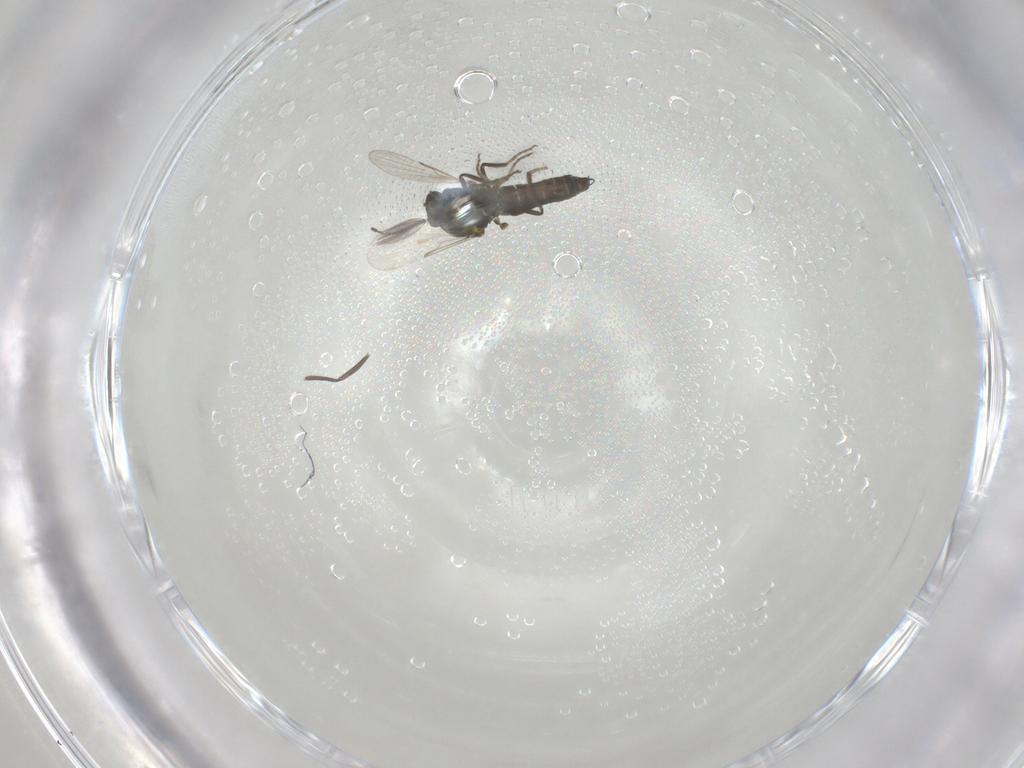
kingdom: Animalia
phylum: Arthropoda
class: Insecta
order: Diptera
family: Ceratopogonidae
